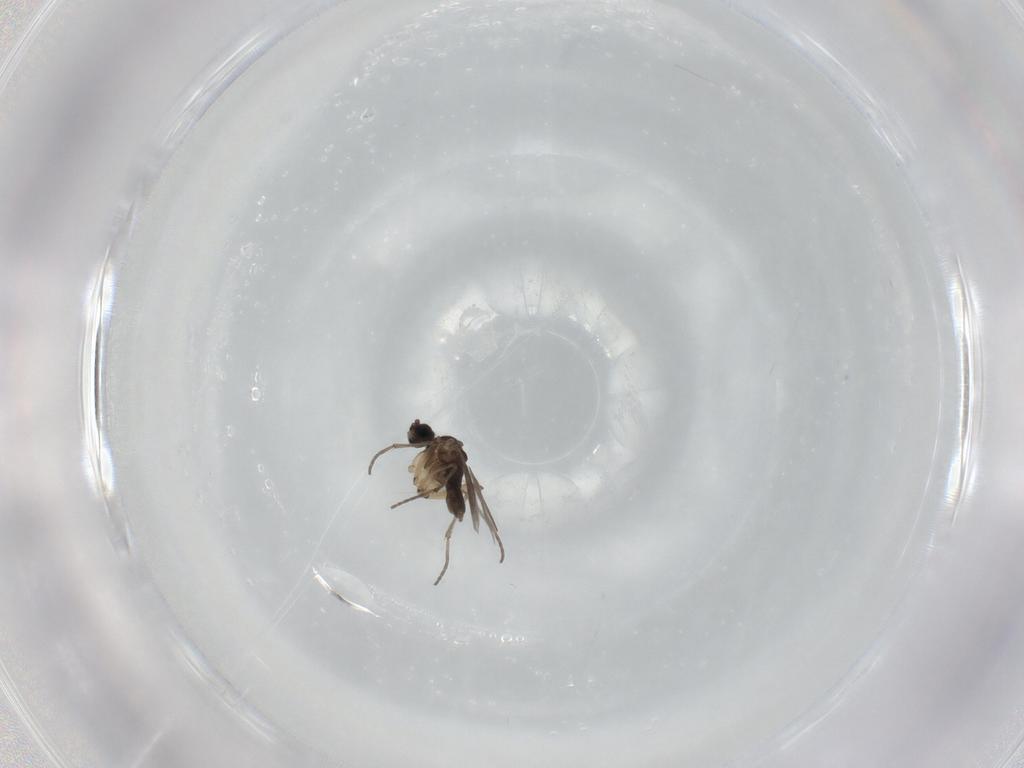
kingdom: Animalia
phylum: Arthropoda
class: Insecta
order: Diptera
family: Sciaridae
